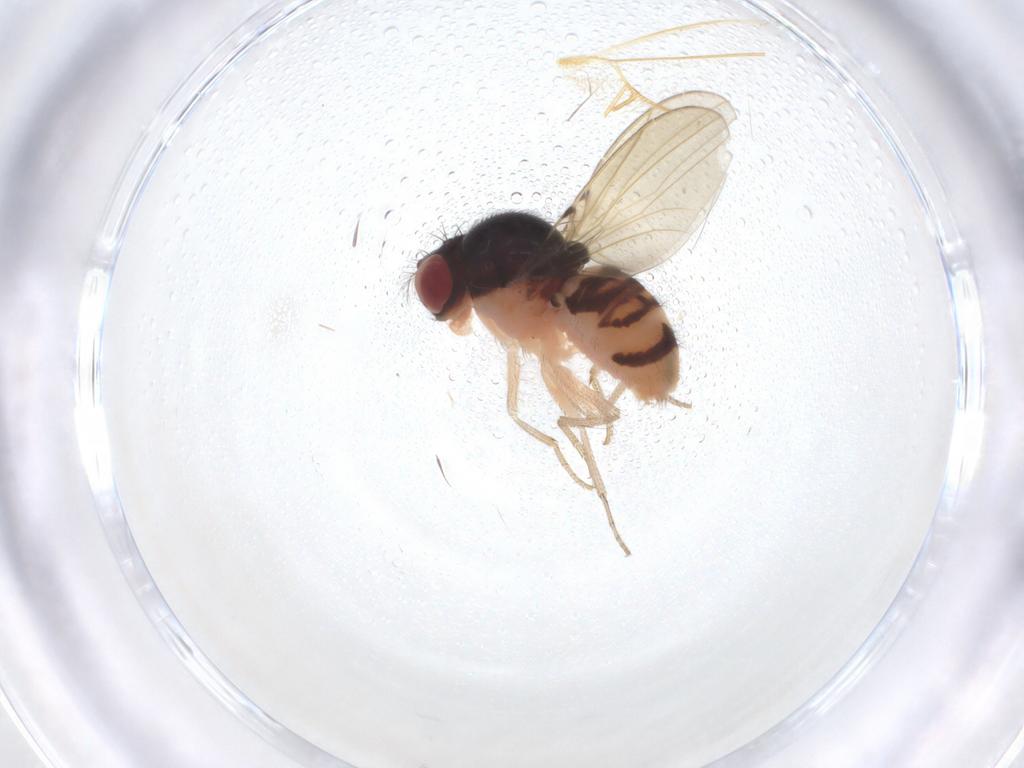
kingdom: Animalia
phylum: Arthropoda
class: Insecta
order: Diptera
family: Drosophilidae
